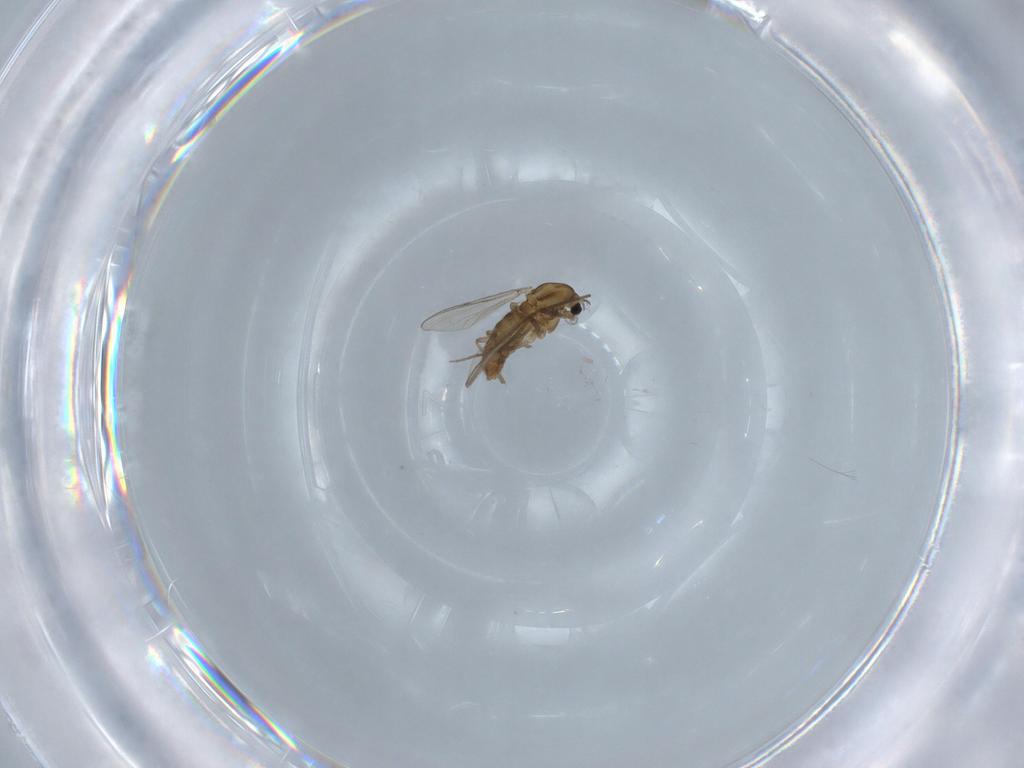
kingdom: Animalia
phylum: Arthropoda
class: Insecta
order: Diptera
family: Chironomidae
